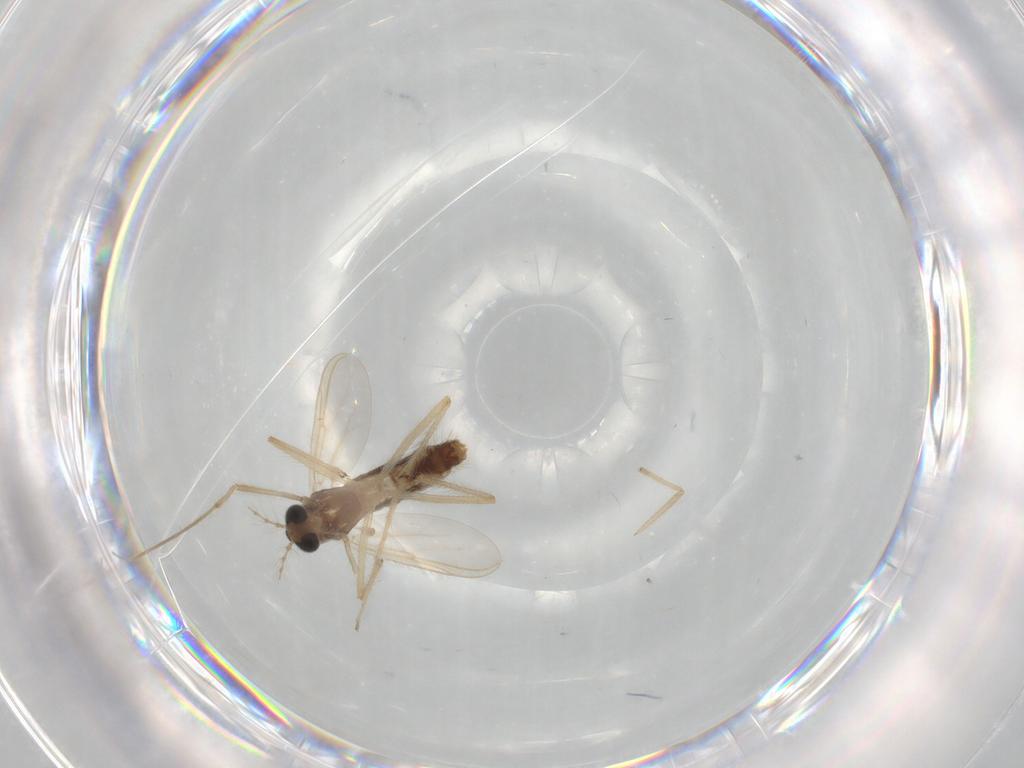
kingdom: Animalia
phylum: Arthropoda
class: Insecta
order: Diptera
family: Chironomidae
